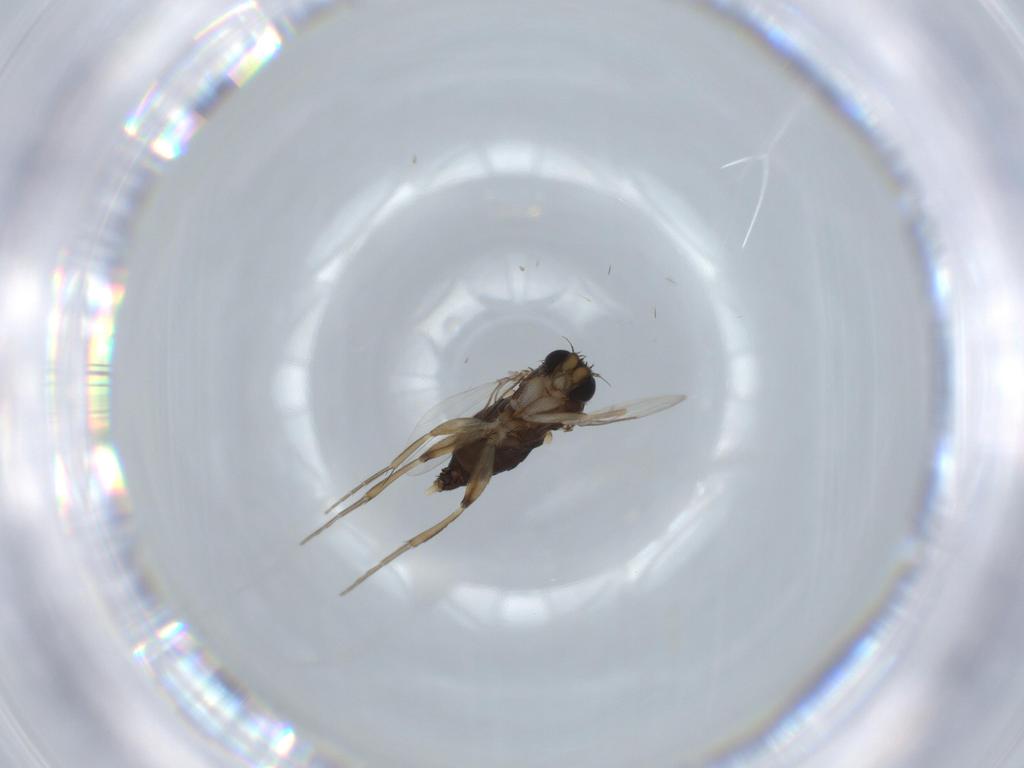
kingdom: Animalia
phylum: Arthropoda
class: Insecta
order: Diptera
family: Phoridae
